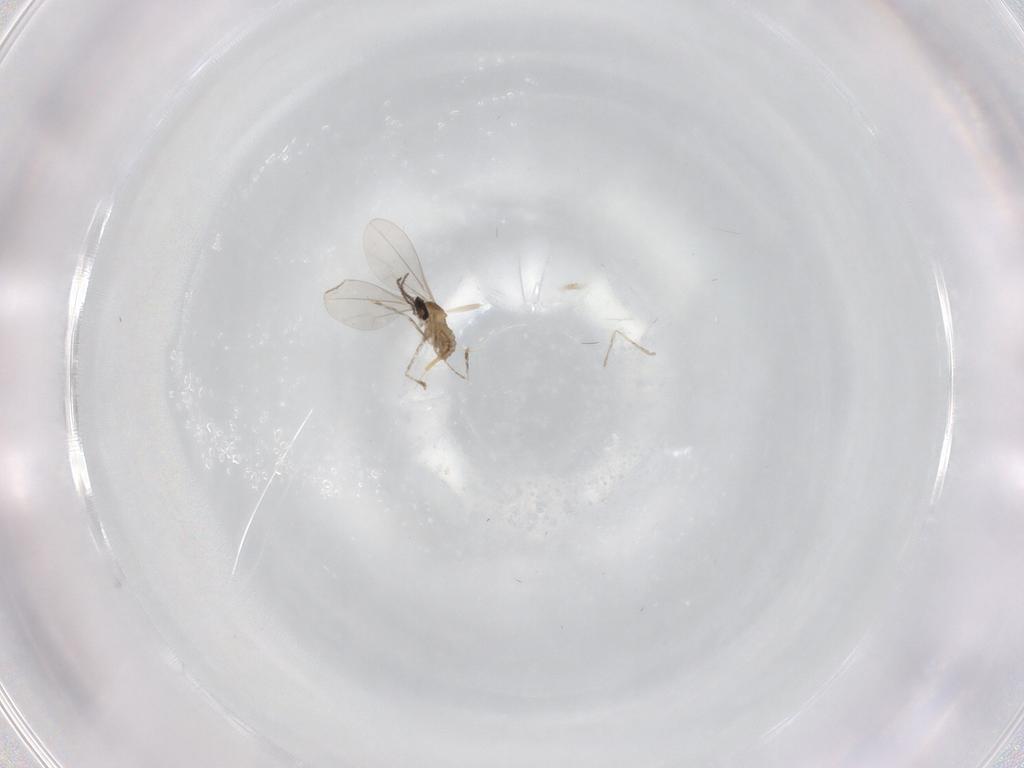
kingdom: Animalia
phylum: Arthropoda
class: Insecta
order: Diptera
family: Cecidomyiidae
